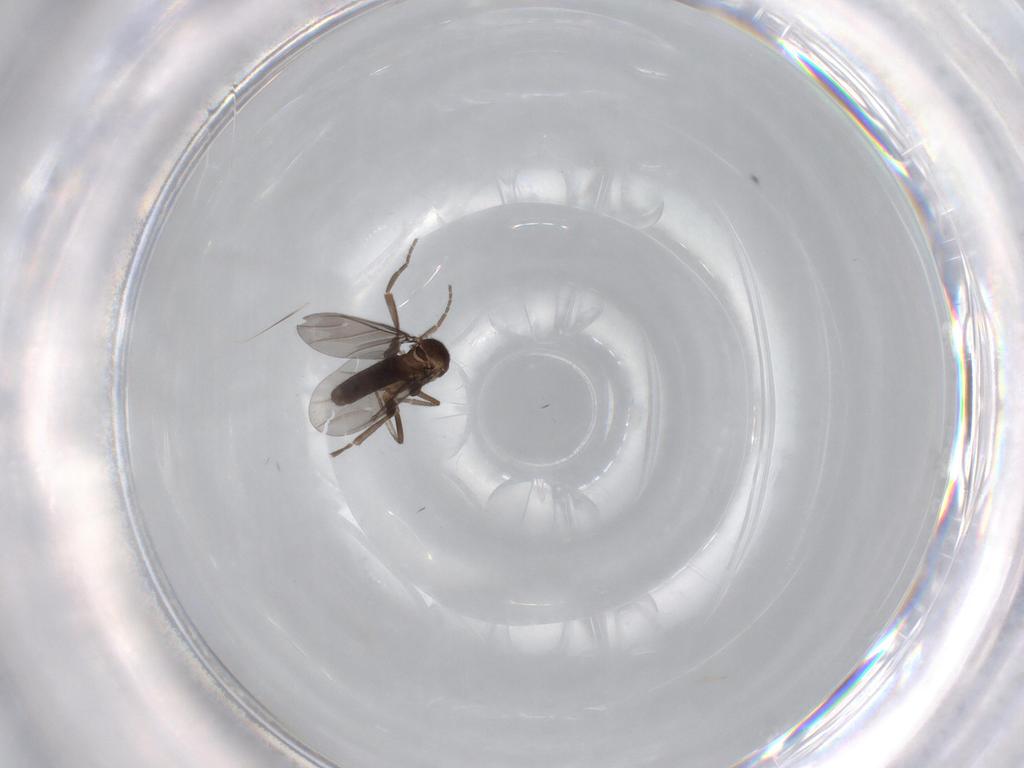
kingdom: Animalia
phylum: Arthropoda
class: Insecta
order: Diptera
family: Phoridae
